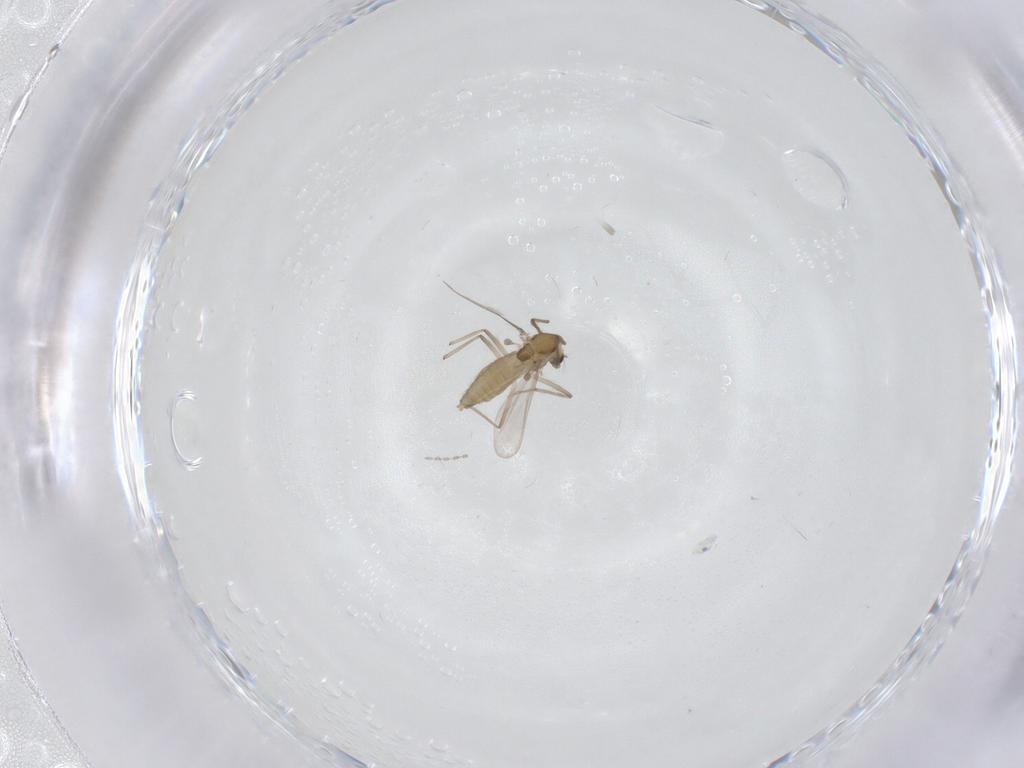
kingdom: Animalia
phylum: Arthropoda
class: Insecta
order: Diptera
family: Chironomidae
